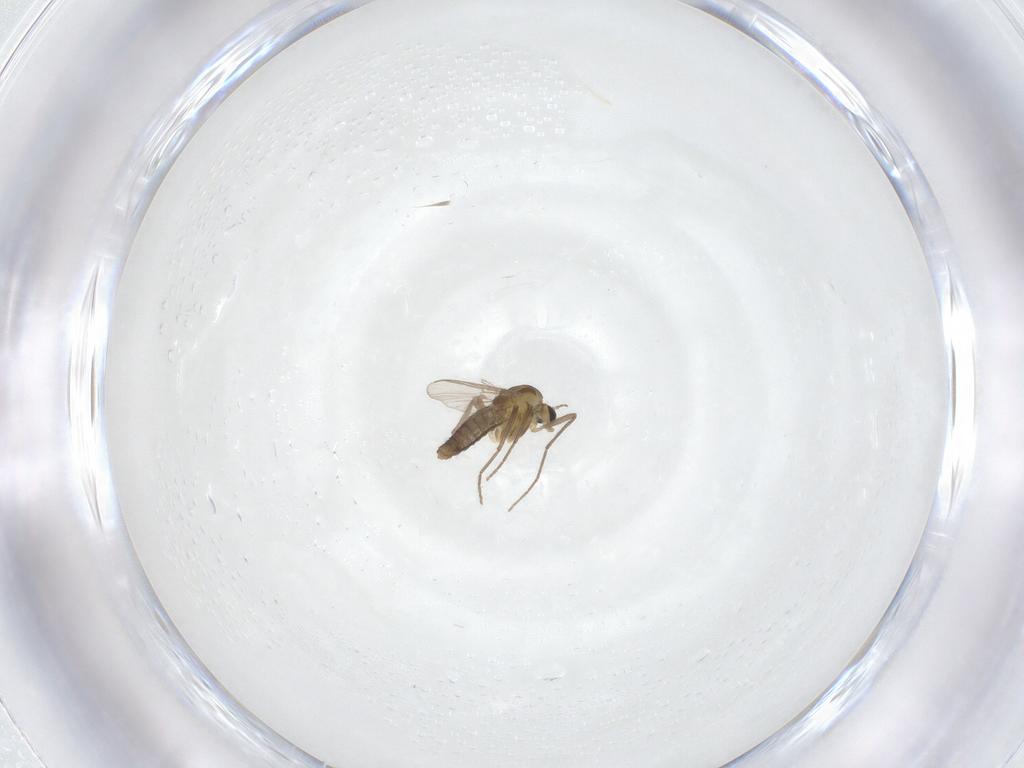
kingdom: Animalia
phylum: Arthropoda
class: Insecta
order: Diptera
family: Chironomidae
